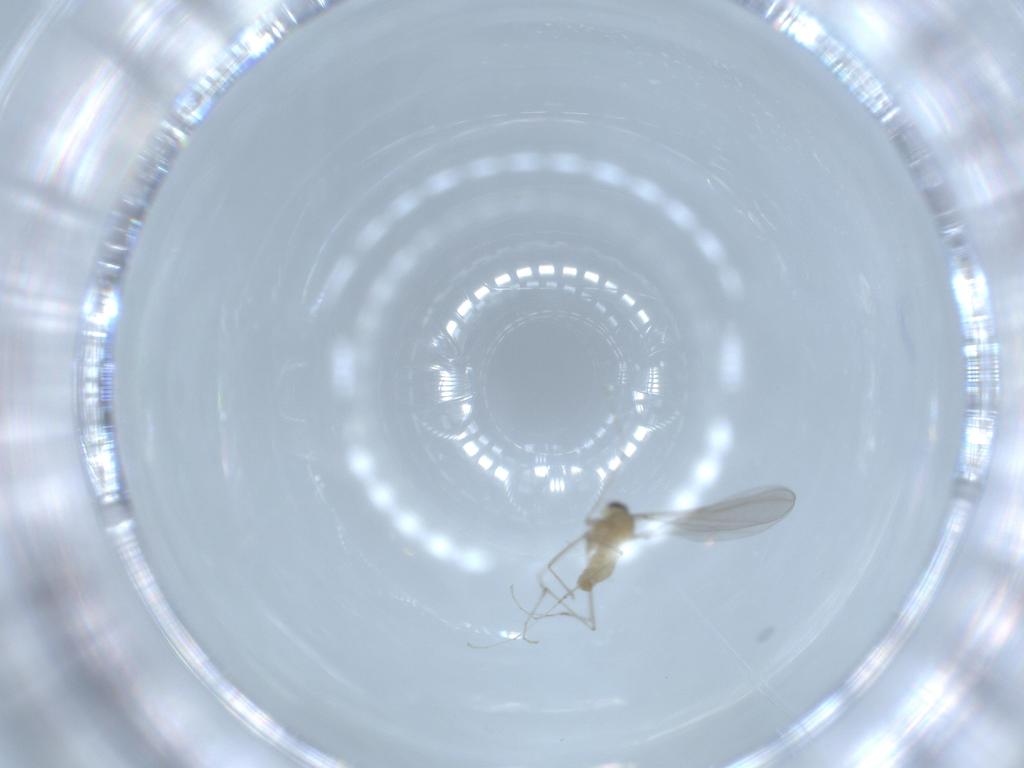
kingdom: Animalia
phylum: Arthropoda
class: Insecta
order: Diptera
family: Cecidomyiidae
